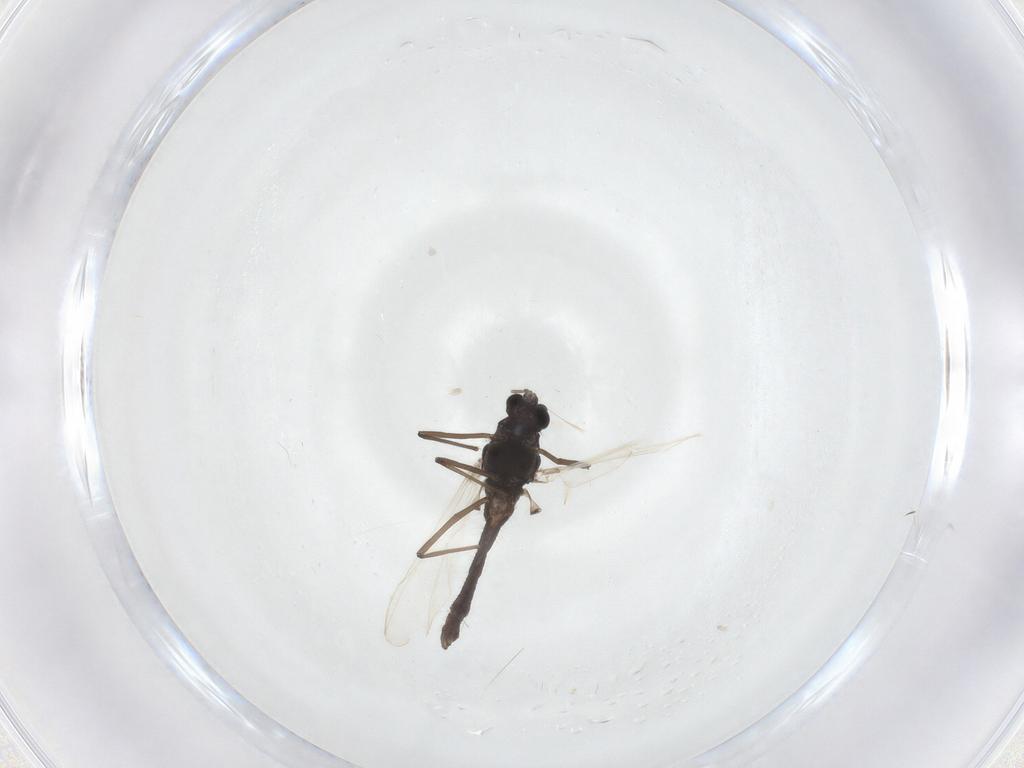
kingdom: Animalia
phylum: Arthropoda
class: Insecta
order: Diptera
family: Chironomidae
